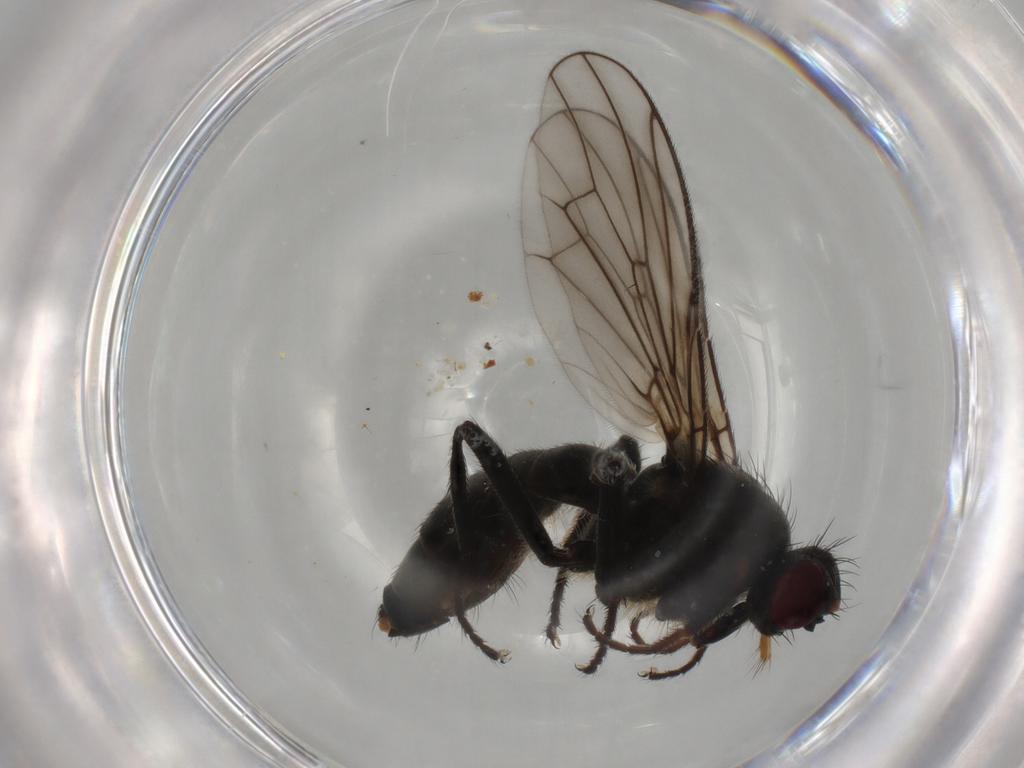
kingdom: Animalia
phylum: Arthropoda
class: Insecta
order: Diptera
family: Scathophagidae
